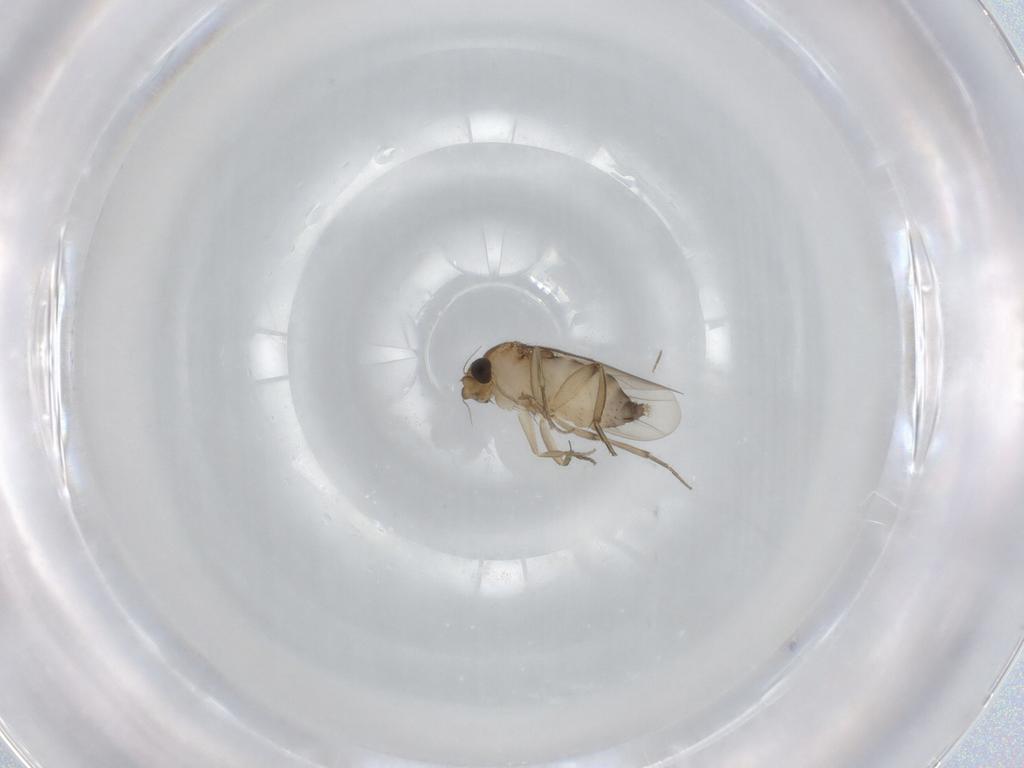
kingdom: Animalia
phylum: Arthropoda
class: Insecta
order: Diptera
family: Phoridae
